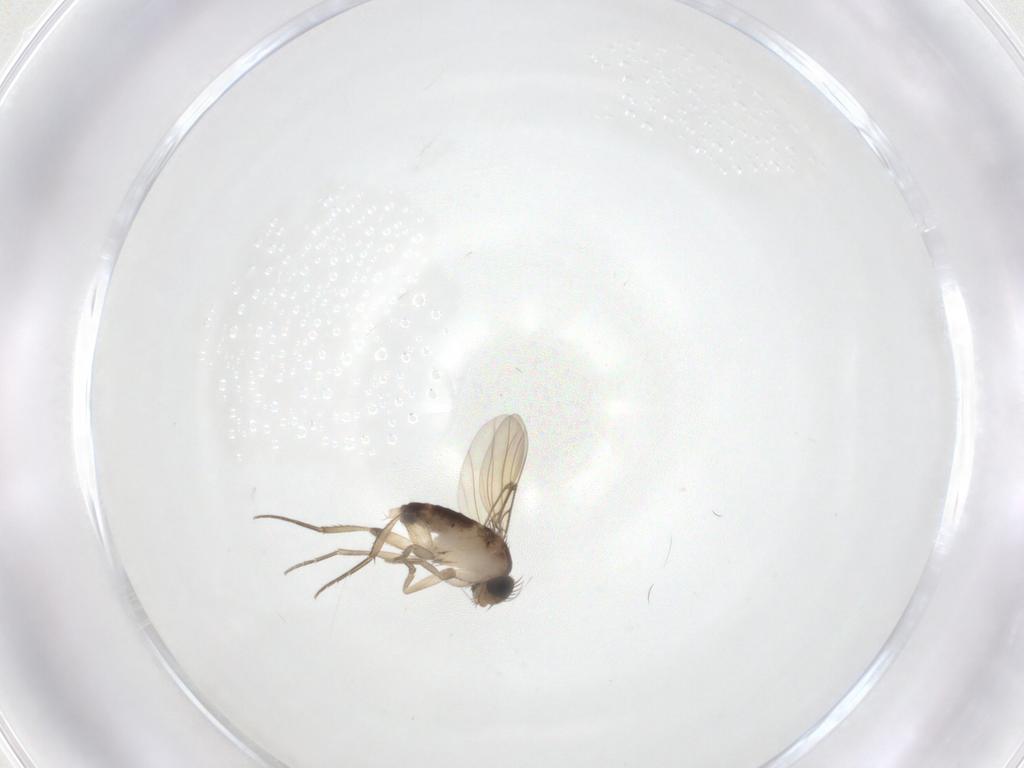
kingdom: Animalia
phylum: Arthropoda
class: Insecta
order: Diptera
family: Phoridae
